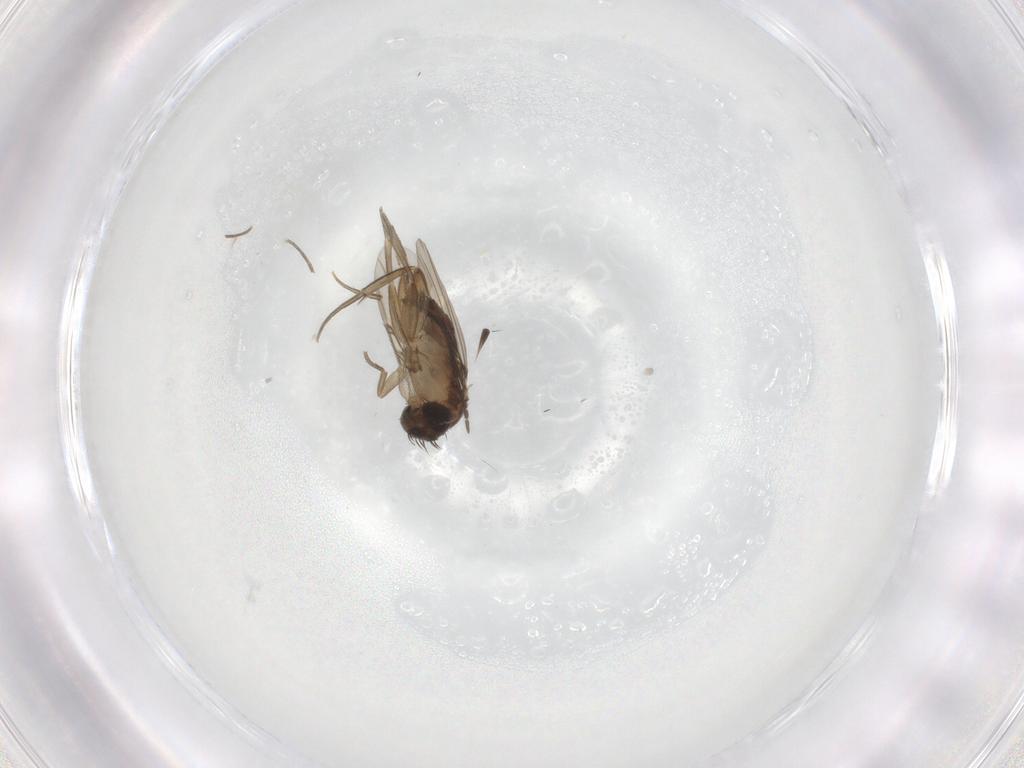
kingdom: Animalia
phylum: Arthropoda
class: Insecta
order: Diptera
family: Phoridae
